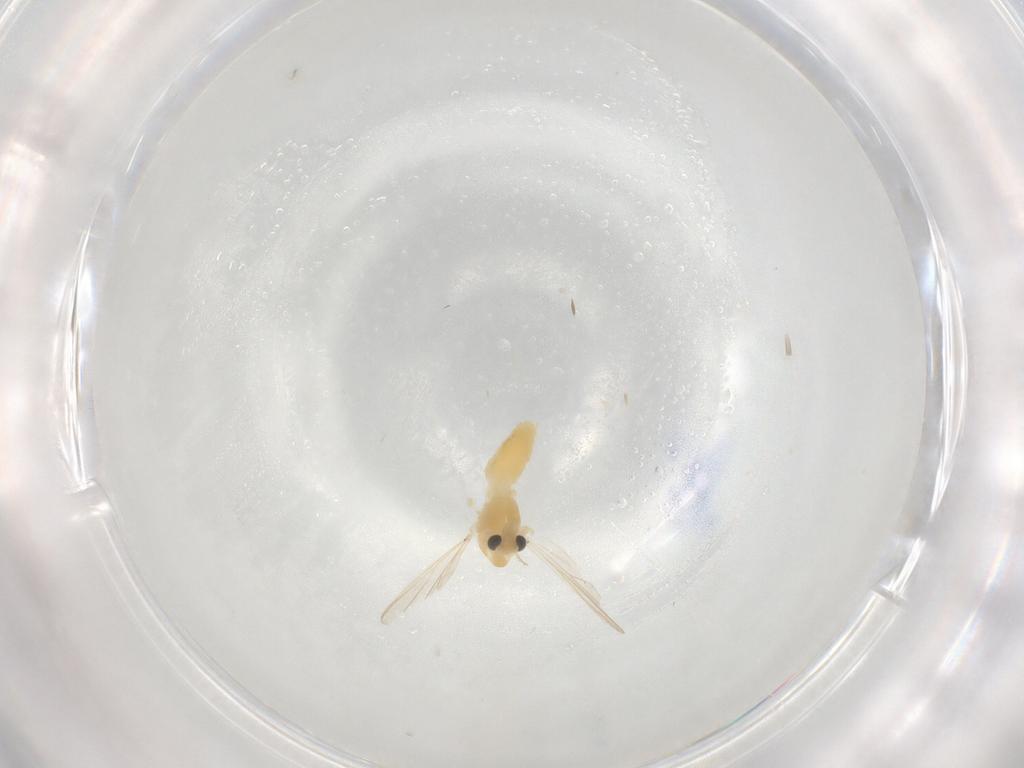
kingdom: Animalia
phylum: Arthropoda
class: Insecta
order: Diptera
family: Chironomidae
